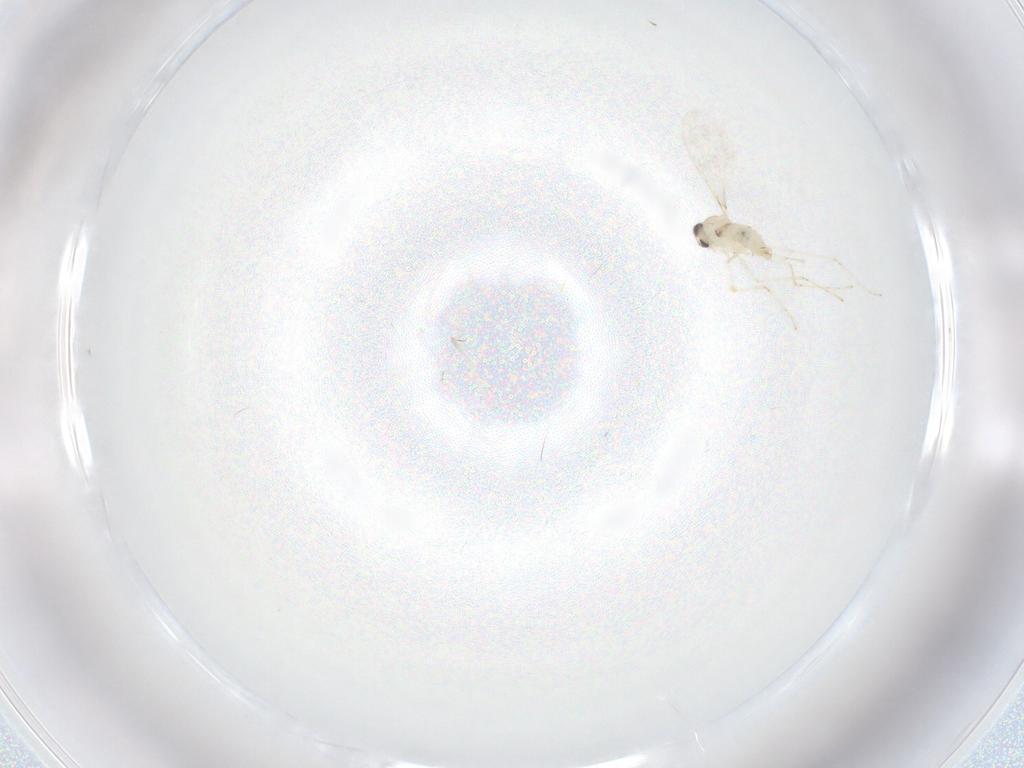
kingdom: Animalia
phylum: Arthropoda
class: Insecta
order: Diptera
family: Cecidomyiidae
